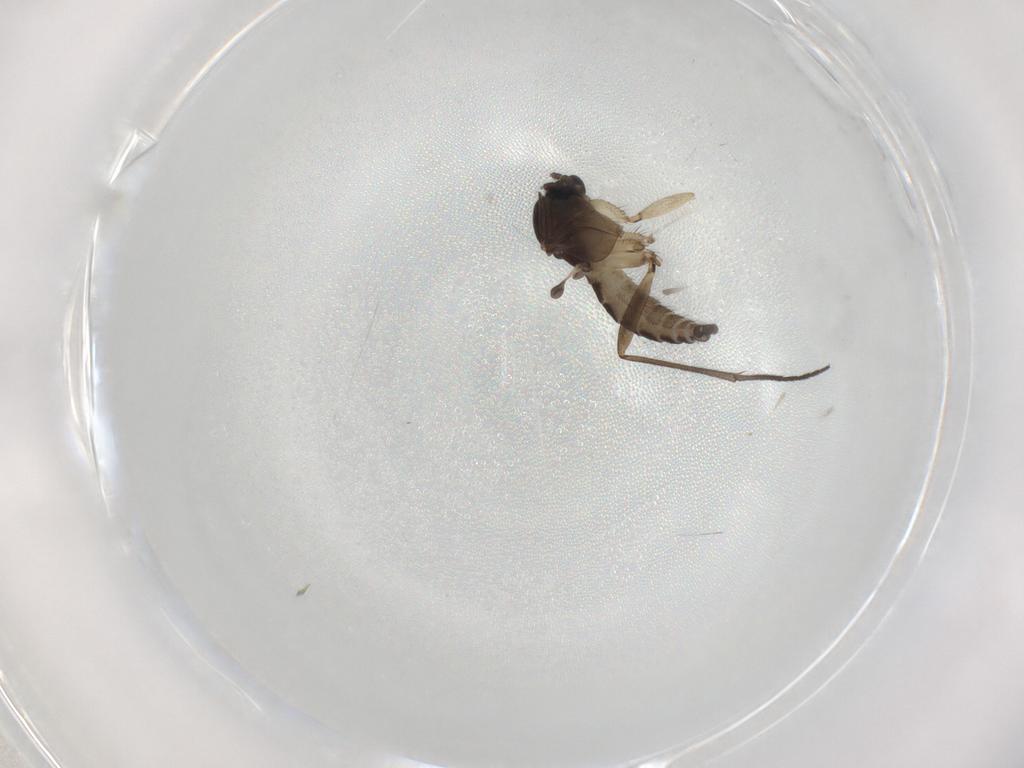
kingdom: Animalia
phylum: Arthropoda
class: Insecta
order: Diptera
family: Sciaridae
